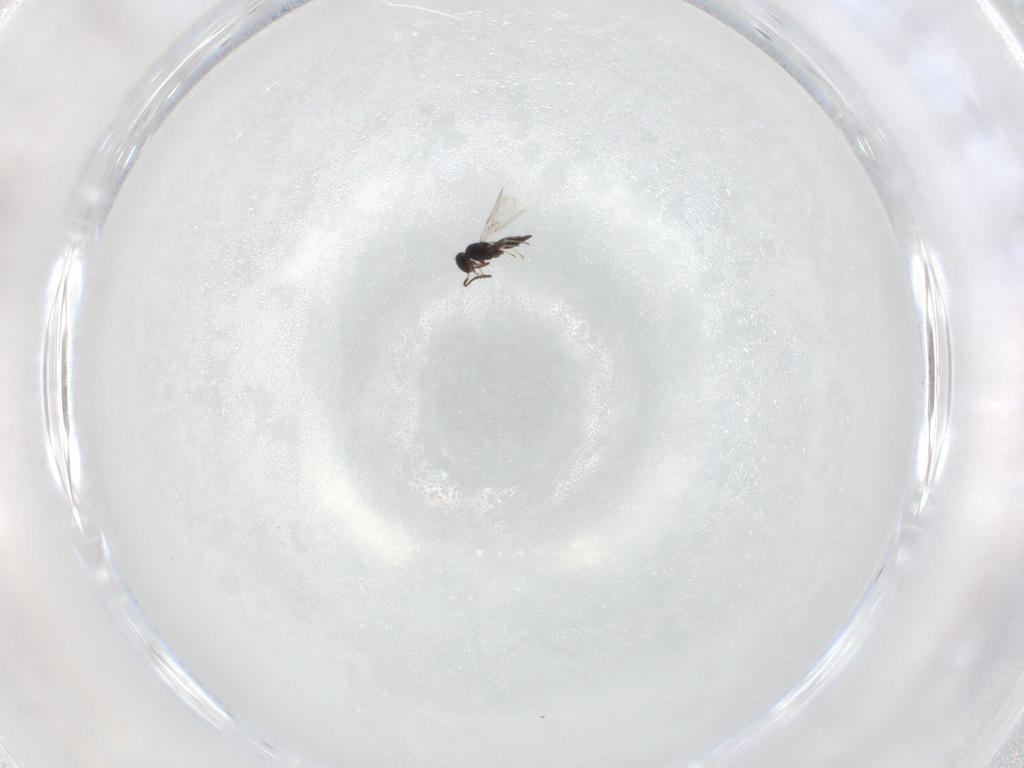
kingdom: Animalia
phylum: Arthropoda
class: Insecta
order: Hymenoptera
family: Scelionidae
